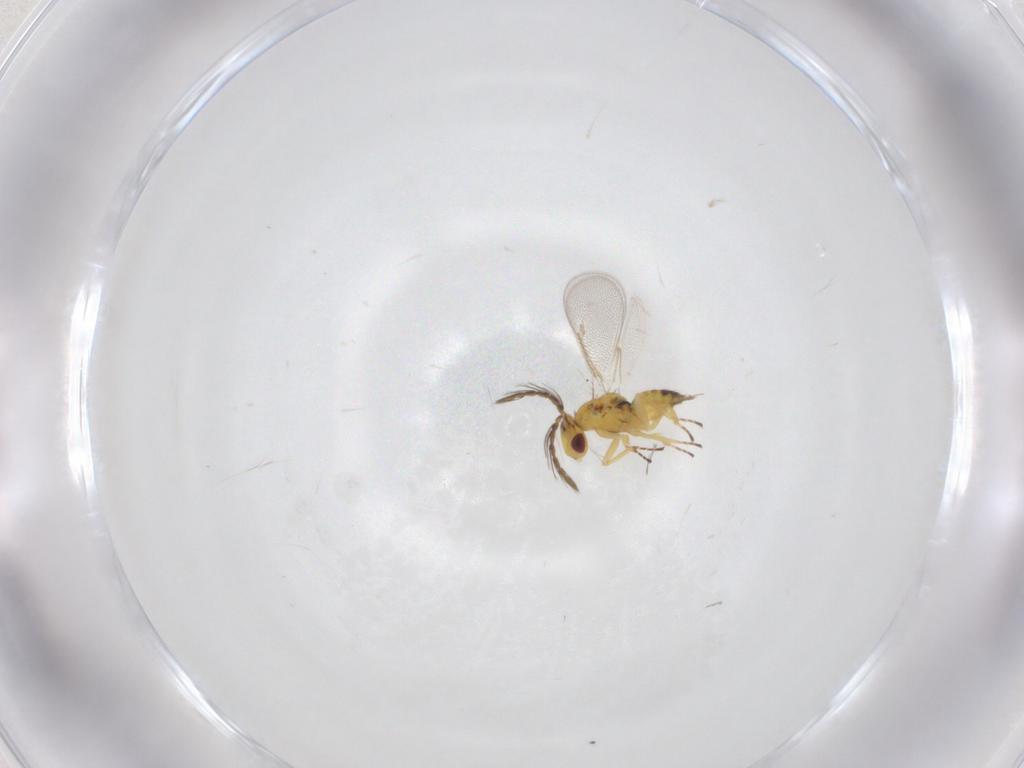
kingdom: Animalia
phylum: Arthropoda
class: Insecta
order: Hymenoptera
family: Eulophidae
